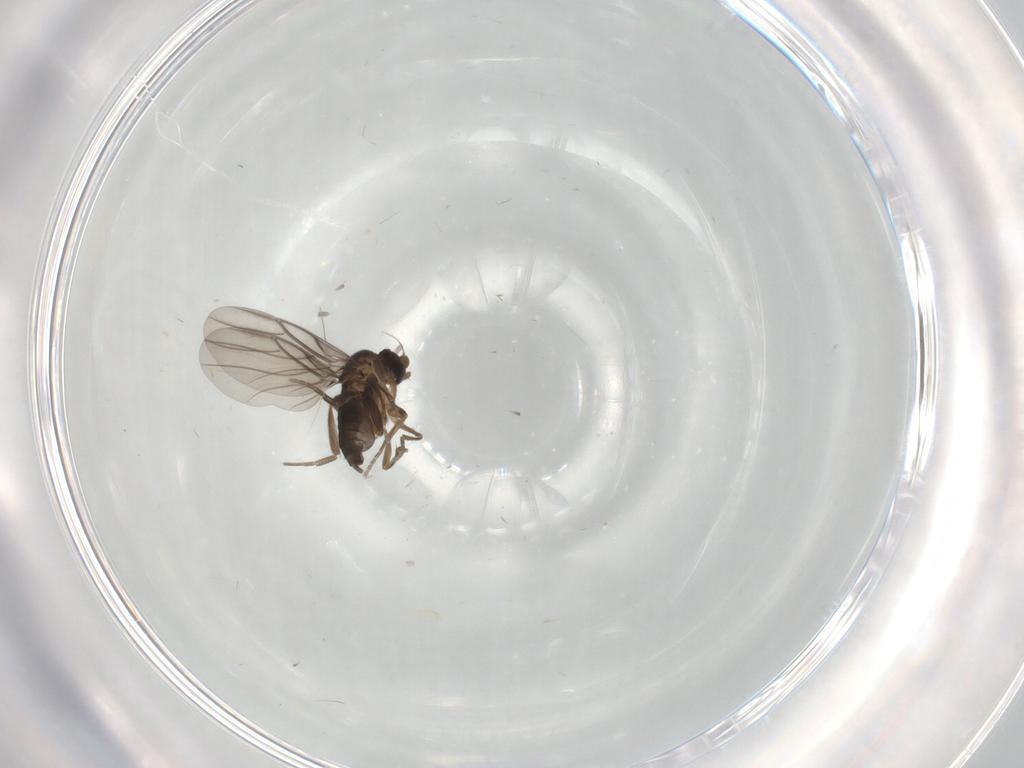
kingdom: Animalia
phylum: Arthropoda
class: Insecta
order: Diptera
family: Phoridae
